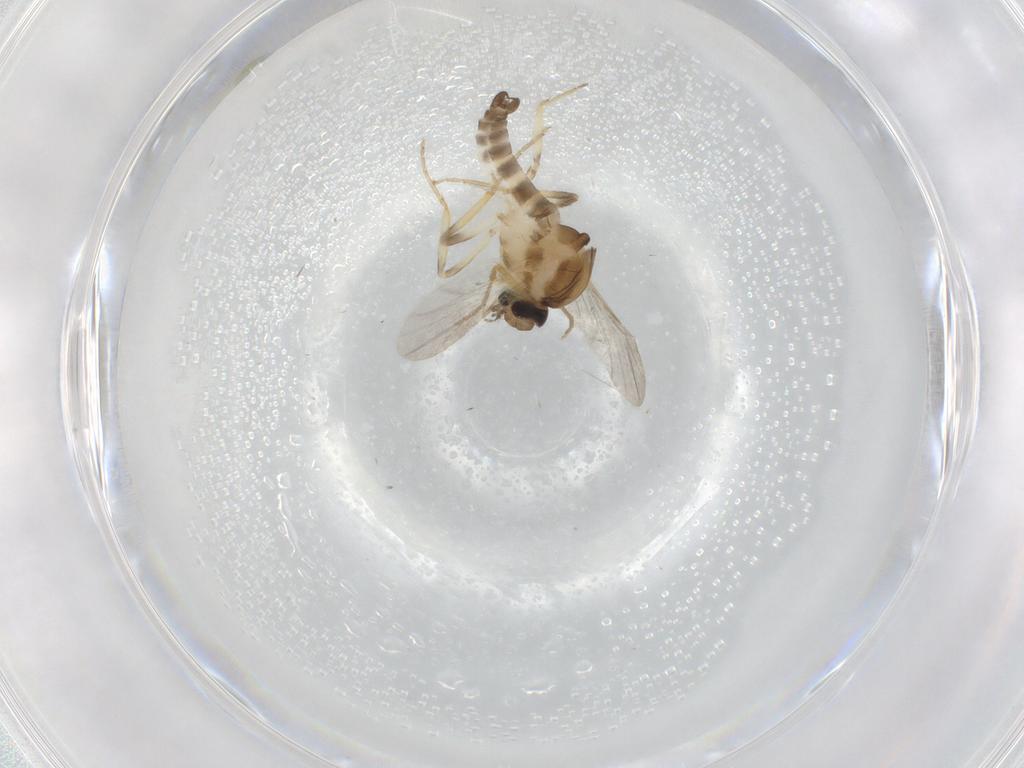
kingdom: Animalia
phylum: Arthropoda
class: Insecta
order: Diptera
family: Ceratopogonidae
